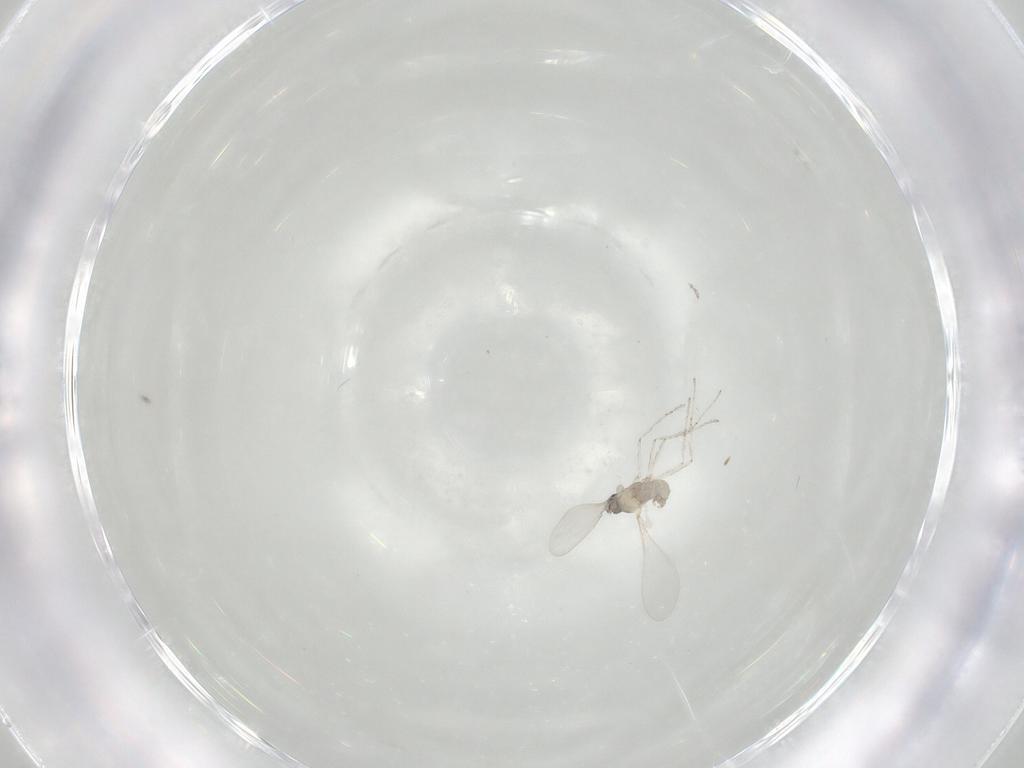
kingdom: Animalia
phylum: Arthropoda
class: Insecta
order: Diptera
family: Cecidomyiidae
